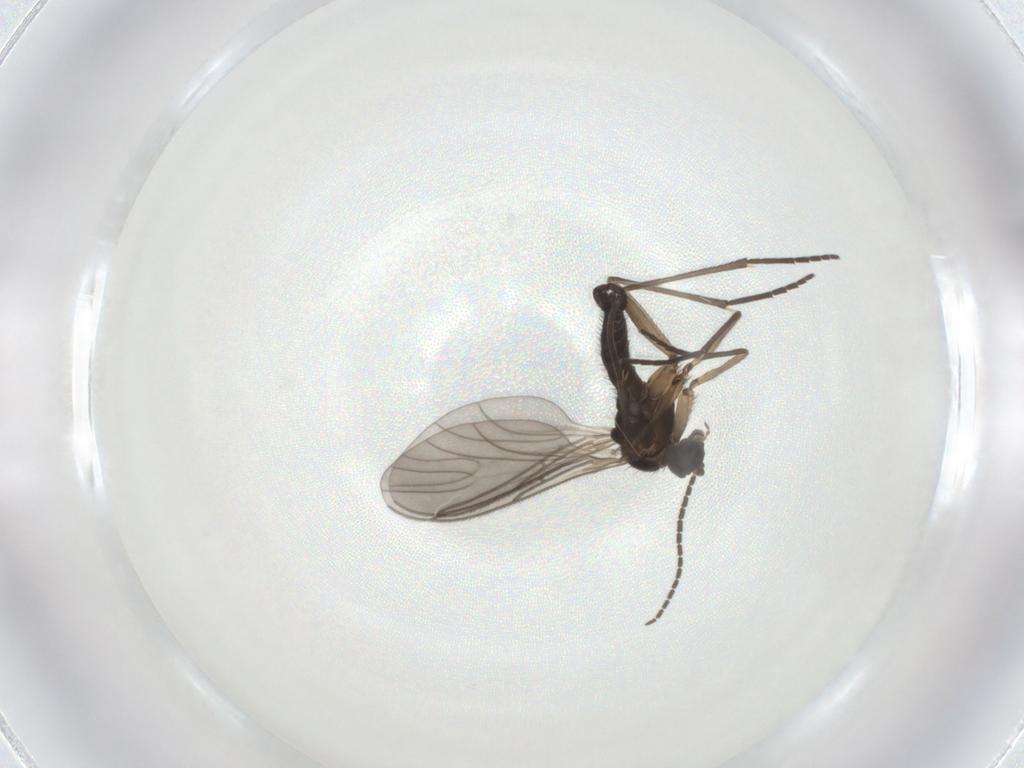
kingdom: Animalia
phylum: Arthropoda
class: Insecta
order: Diptera
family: Sciaridae
